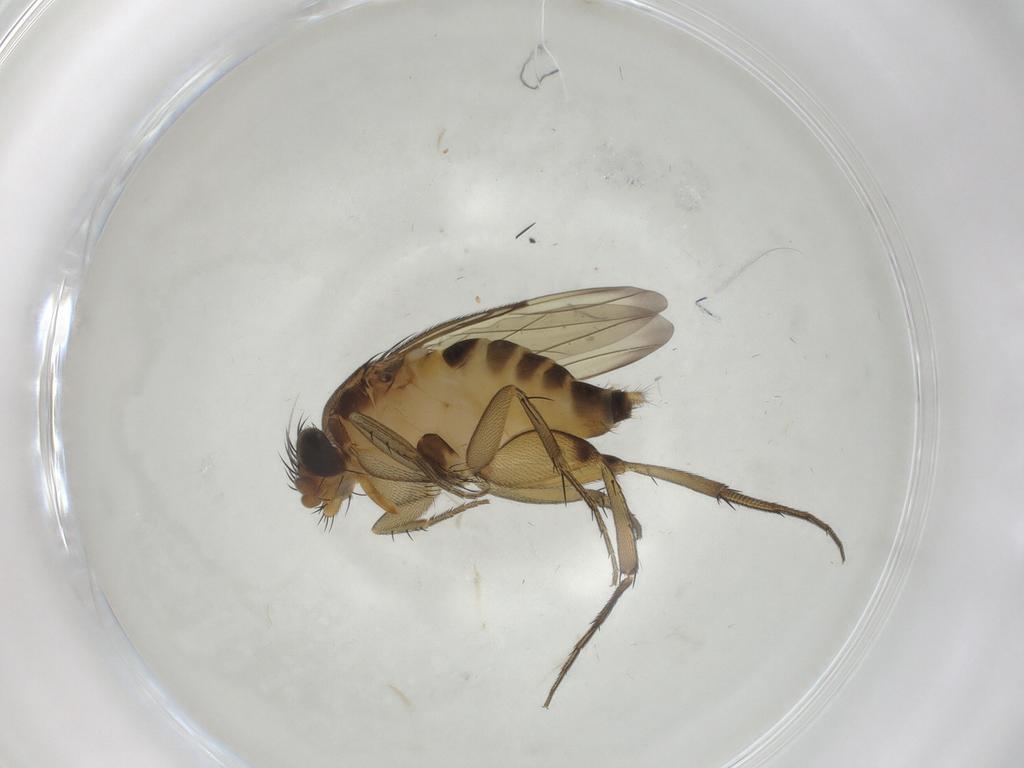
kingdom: Animalia
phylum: Arthropoda
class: Insecta
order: Diptera
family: Phoridae
